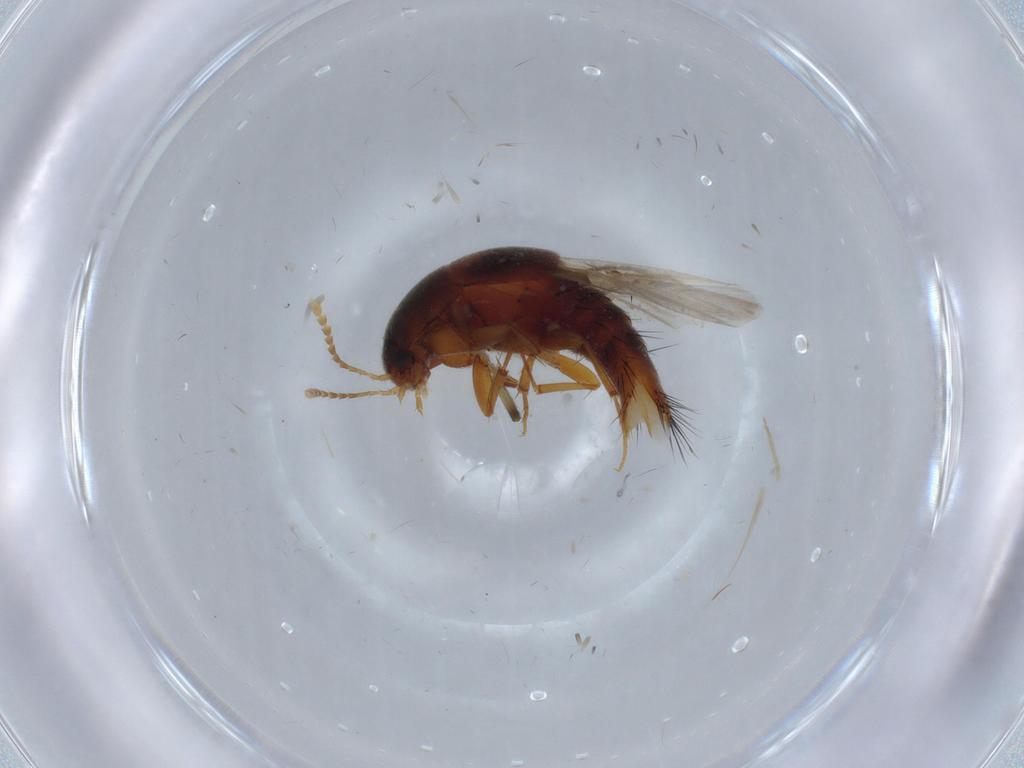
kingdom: Animalia
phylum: Arthropoda
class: Insecta
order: Coleoptera
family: Staphylinidae
